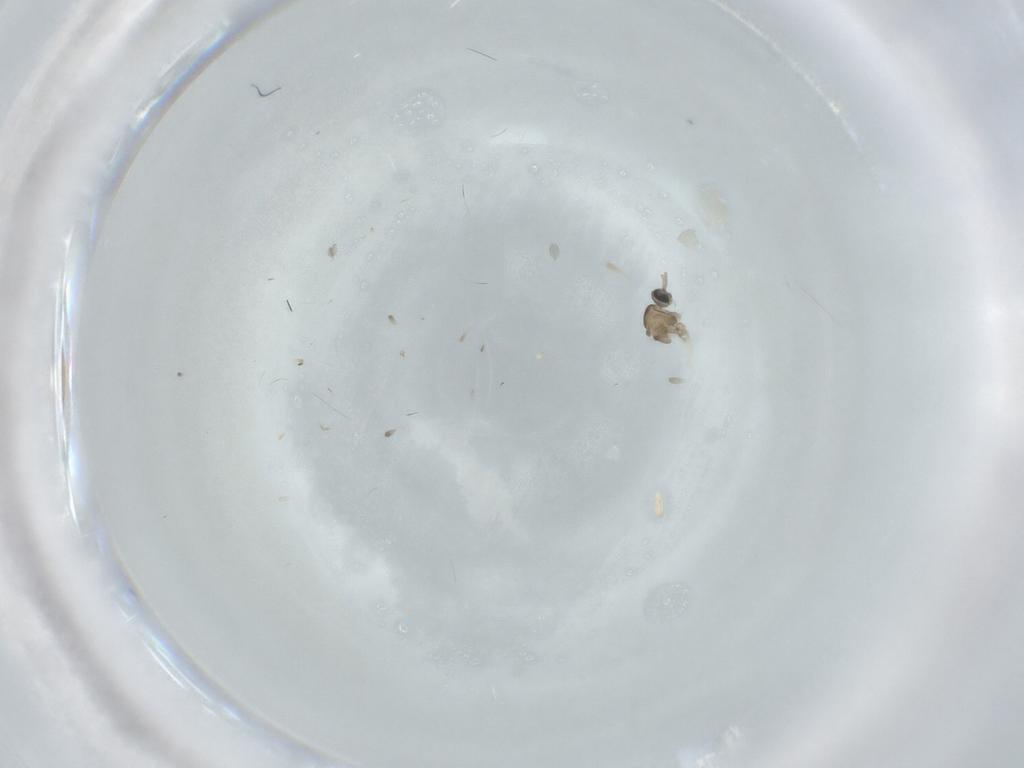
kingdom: Animalia
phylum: Arthropoda
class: Insecta
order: Diptera
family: Cecidomyiidae
